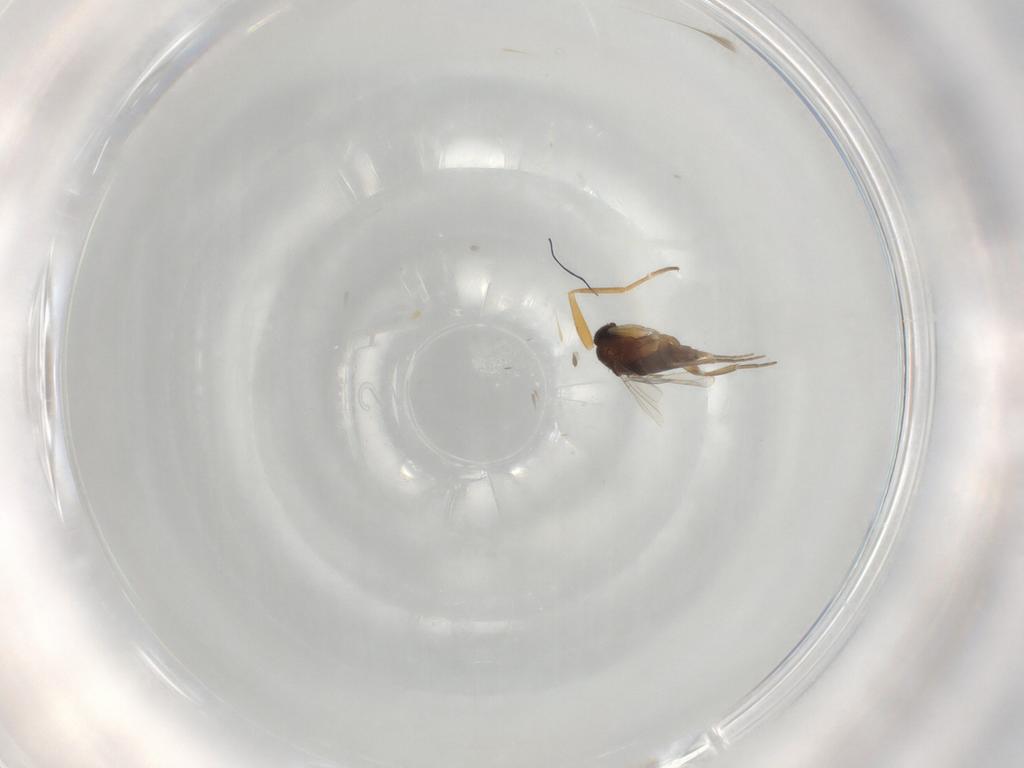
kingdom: Animalia
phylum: Arthropoda
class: Insecta
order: Diptera
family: Phoridae
